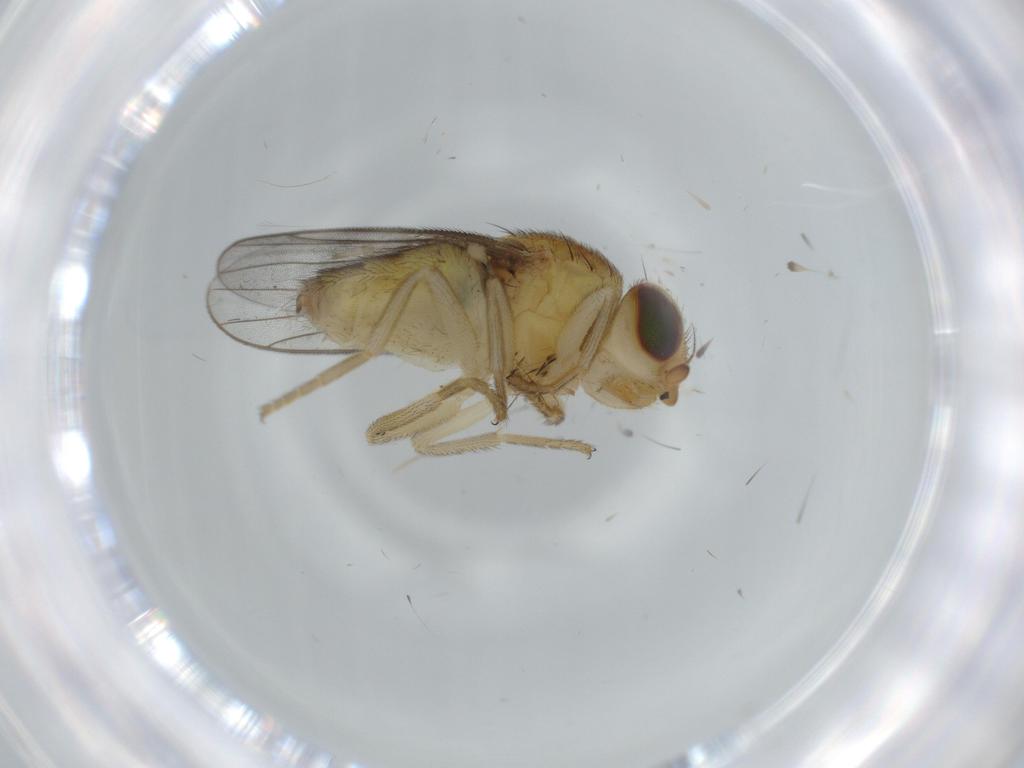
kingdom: Animalia
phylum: Arthropoda
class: Insecta
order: Diptera
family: Chloropidae
